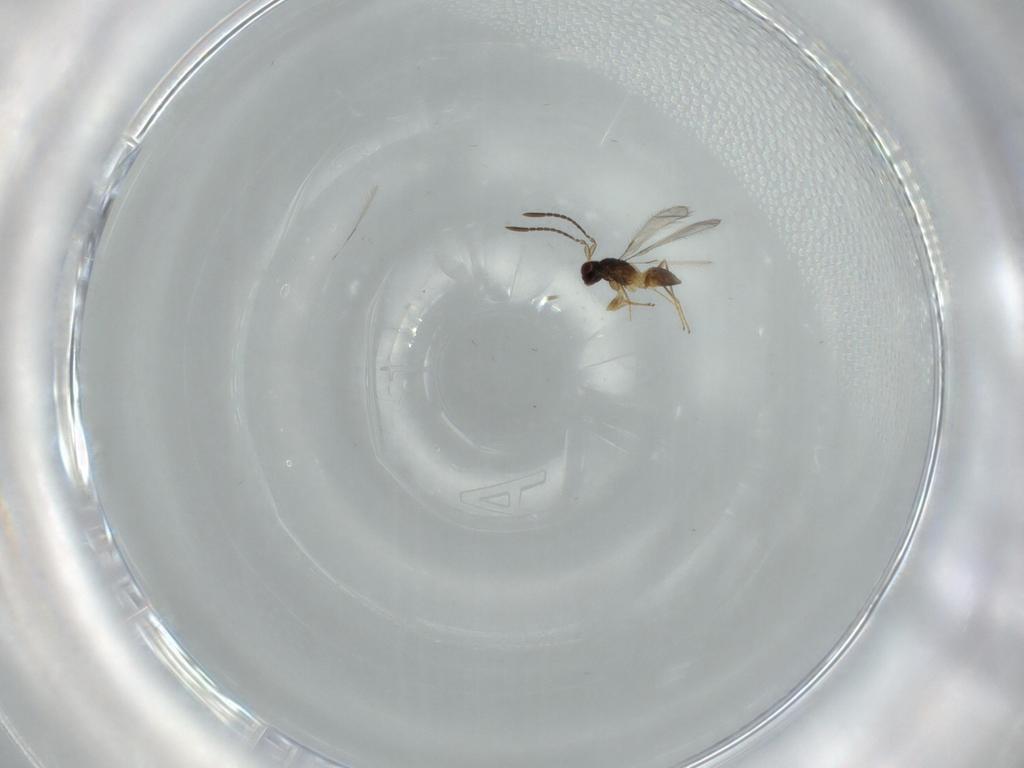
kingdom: Animalia
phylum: Arthropoda
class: Insecta
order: Hymenoptera
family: Mymaridae
